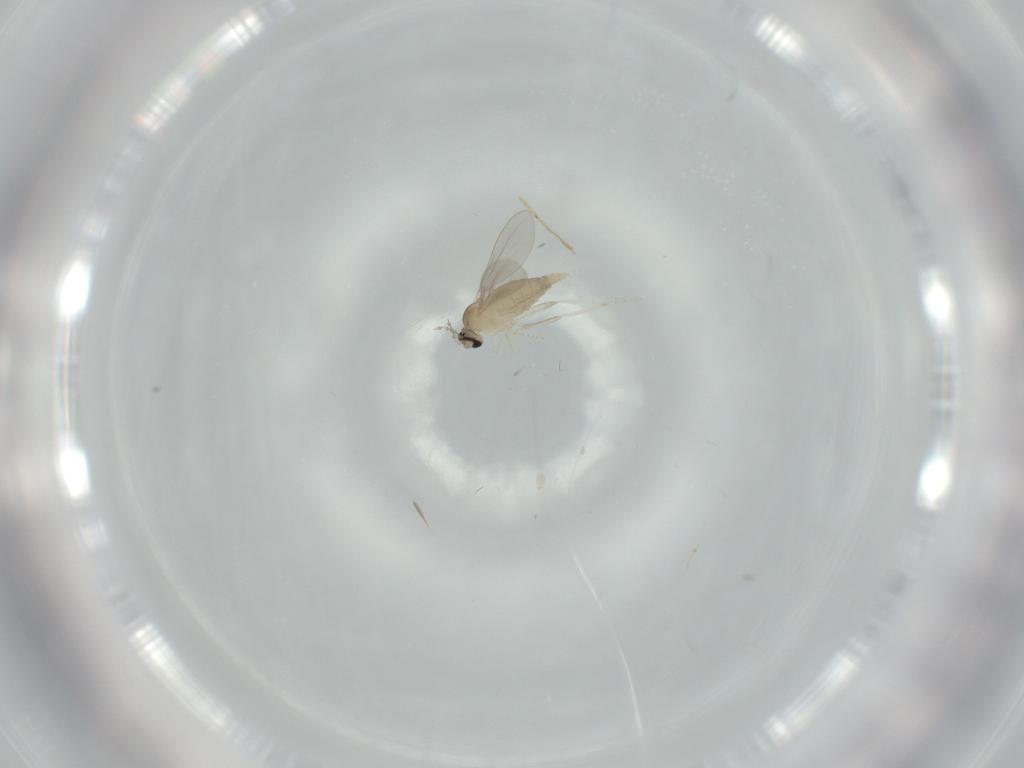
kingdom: Animalia
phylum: Arthropoda
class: Insecta
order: Diptera
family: Cecidomyiidae
